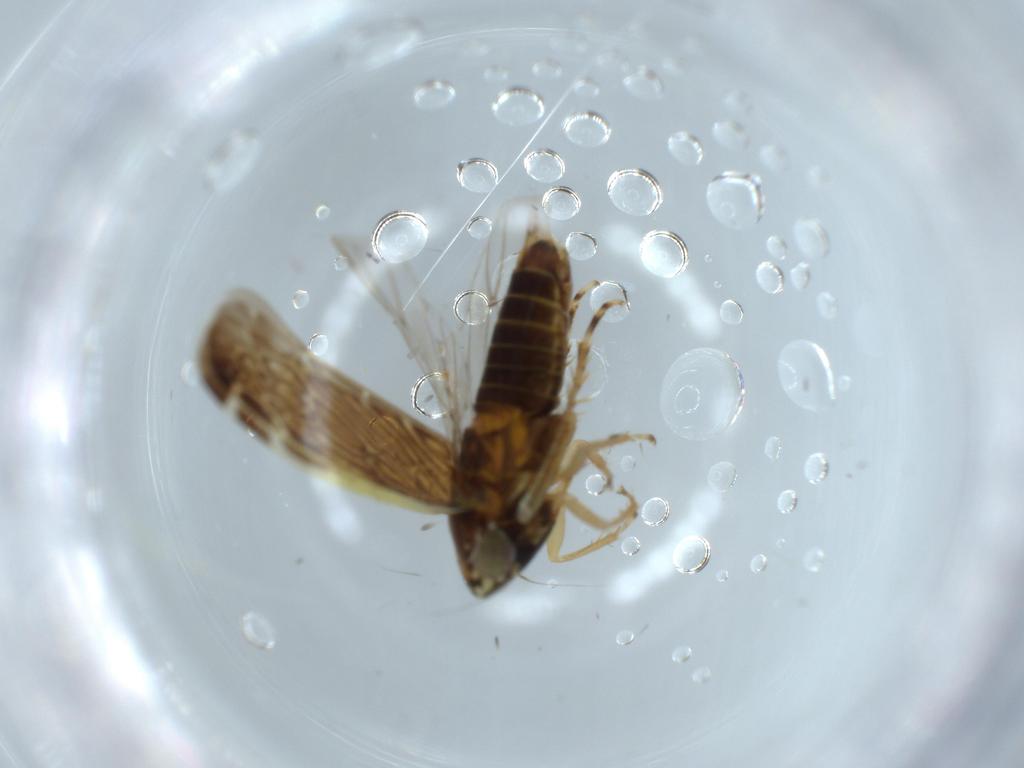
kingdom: Animalia
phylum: Arthropoda
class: Insecta
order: Hemiptera
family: Cicadellidae
